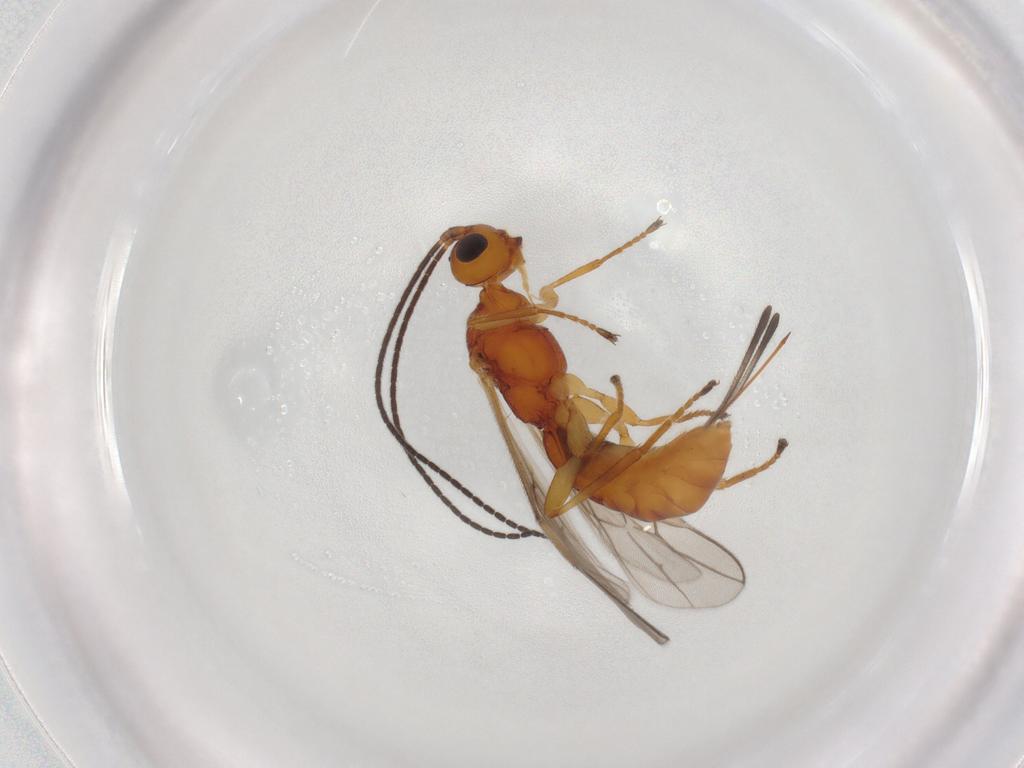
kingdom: Animalia
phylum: Arthropoda
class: Insecta
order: Hymenoptera
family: Braconidae
